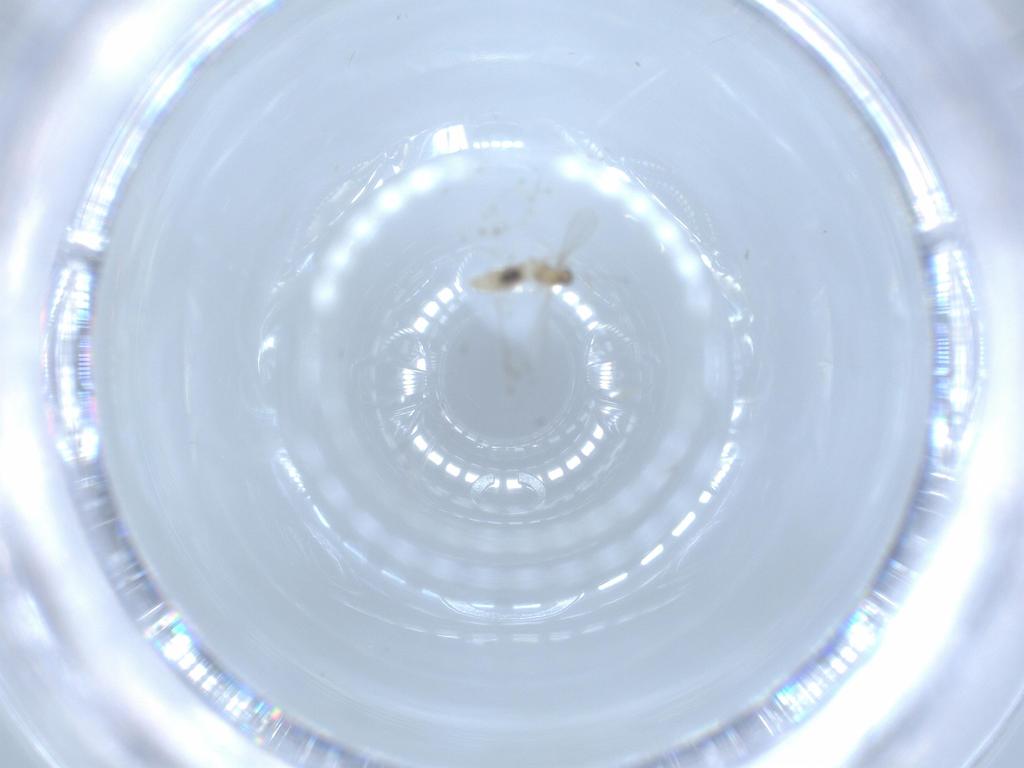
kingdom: Animalia
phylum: Arthropoda
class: Insecta
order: Diptera
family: Cecidomyiidae
